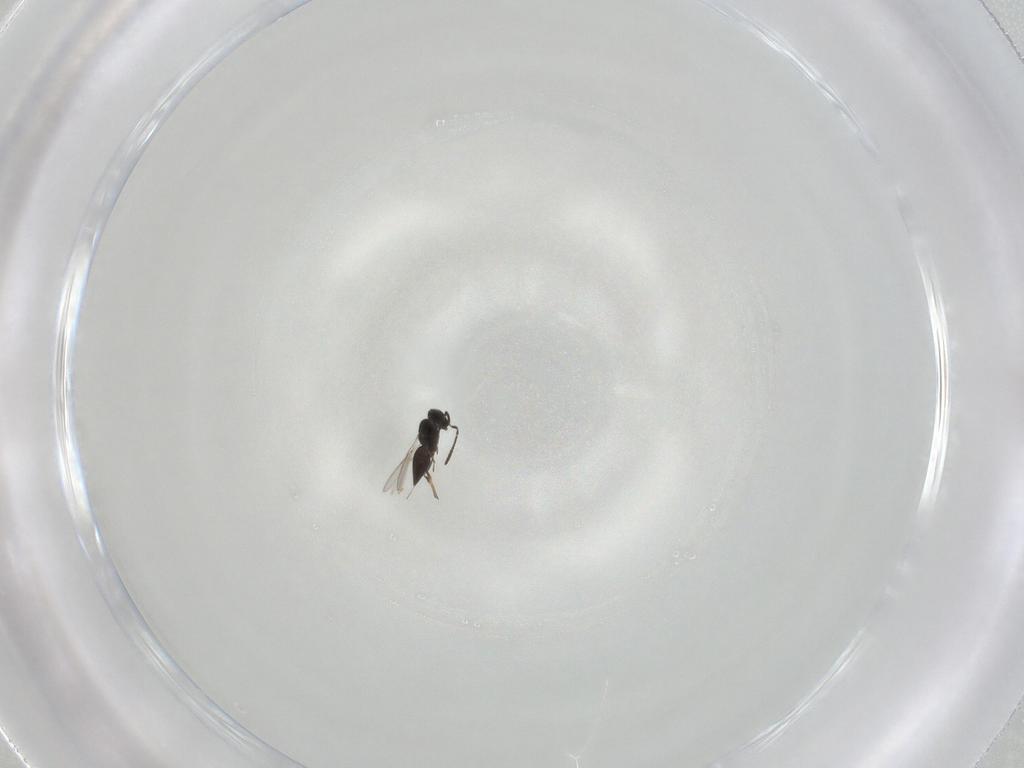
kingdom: Animalia
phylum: Arthropoda
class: Insecta
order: Hymenoptera
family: Scelionidae
